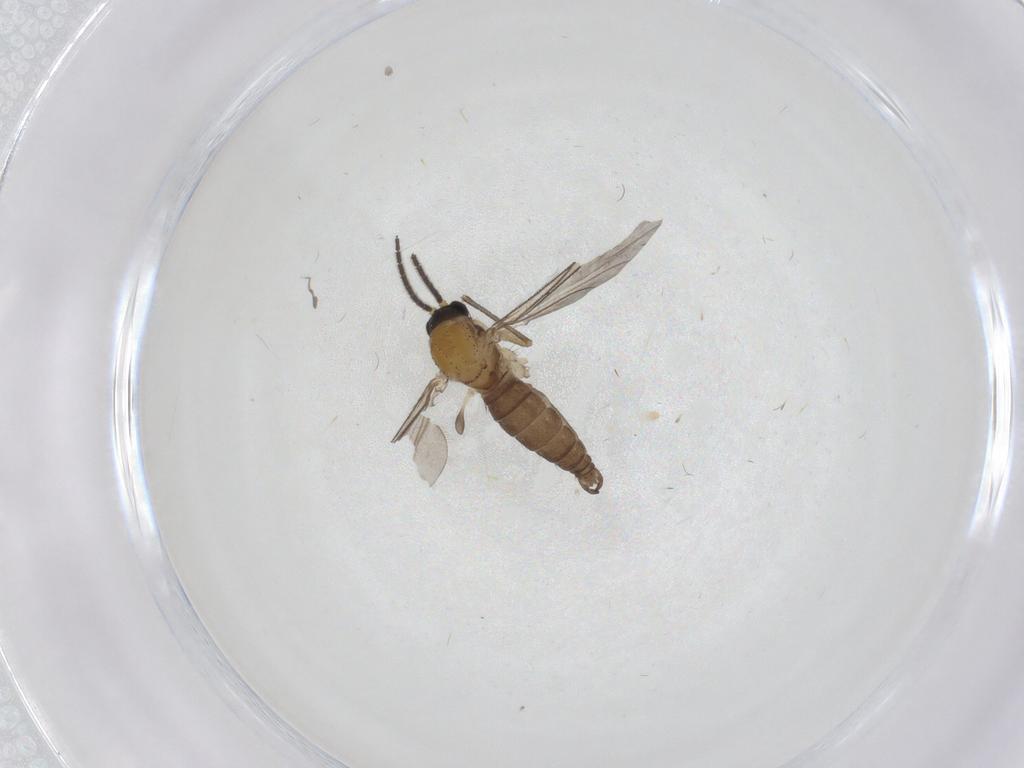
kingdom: Animalia
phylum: Arthropoda
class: Insecta
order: Diptera
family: Sciaridae
